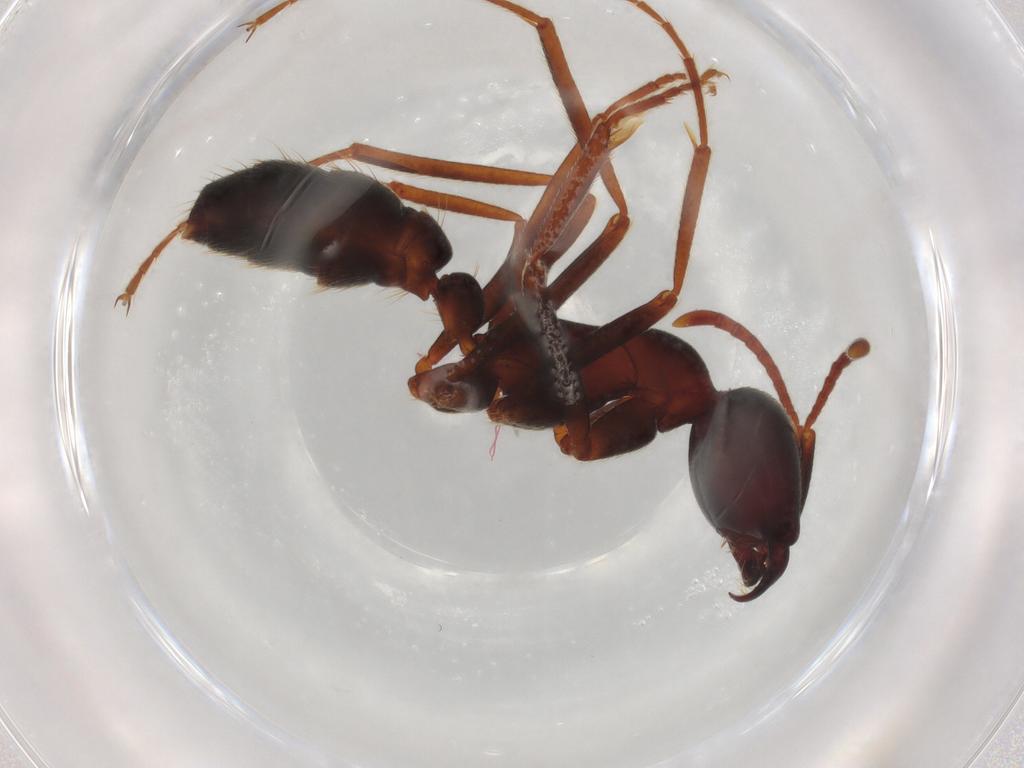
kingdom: Animalia
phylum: Arthropoda
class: Insecta
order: Hymenoptera
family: Formicidae
